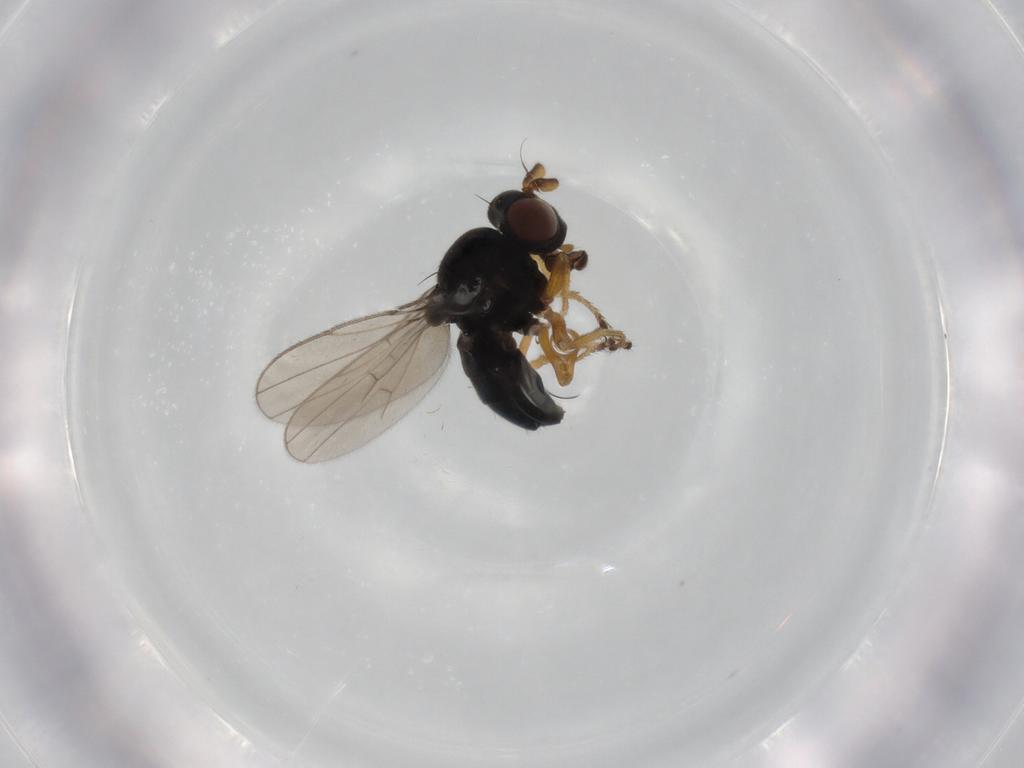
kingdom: Animalia
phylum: Arthropoda
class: Insecta
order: Diptera
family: Ephydridae
